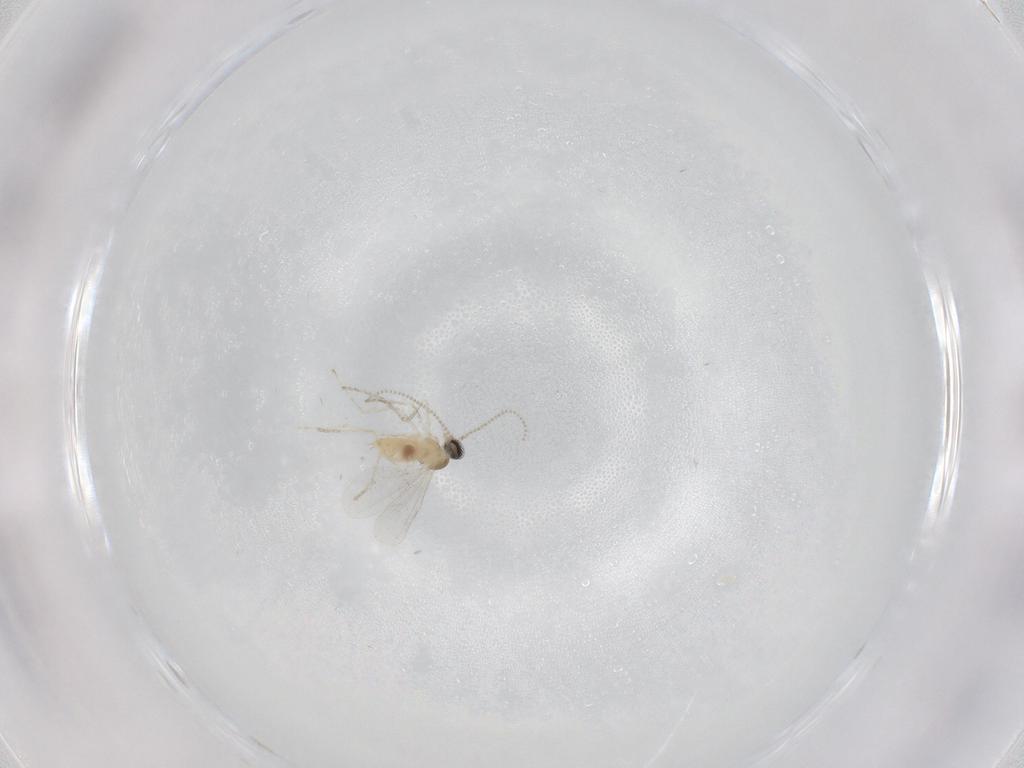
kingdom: Animalia
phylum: Arthropoda
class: Insecta
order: Diptera
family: Cecidomyiidae
